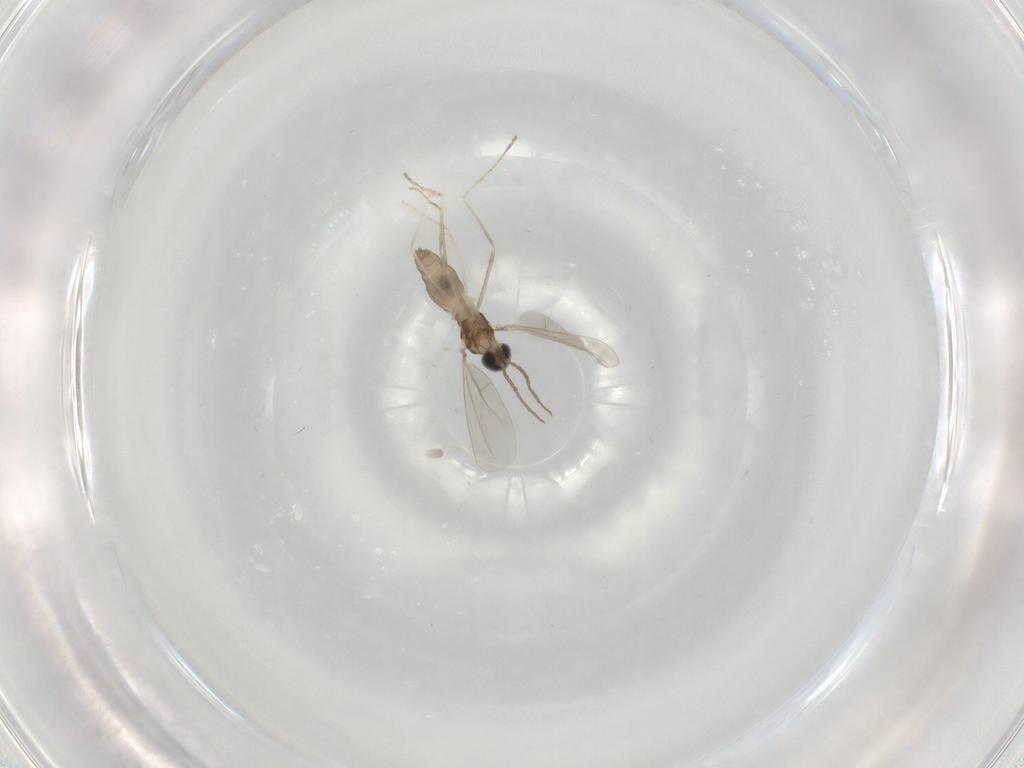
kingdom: Animalia
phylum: Arthropoda
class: Insecta
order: Diptera
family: Cecidomyiidae
